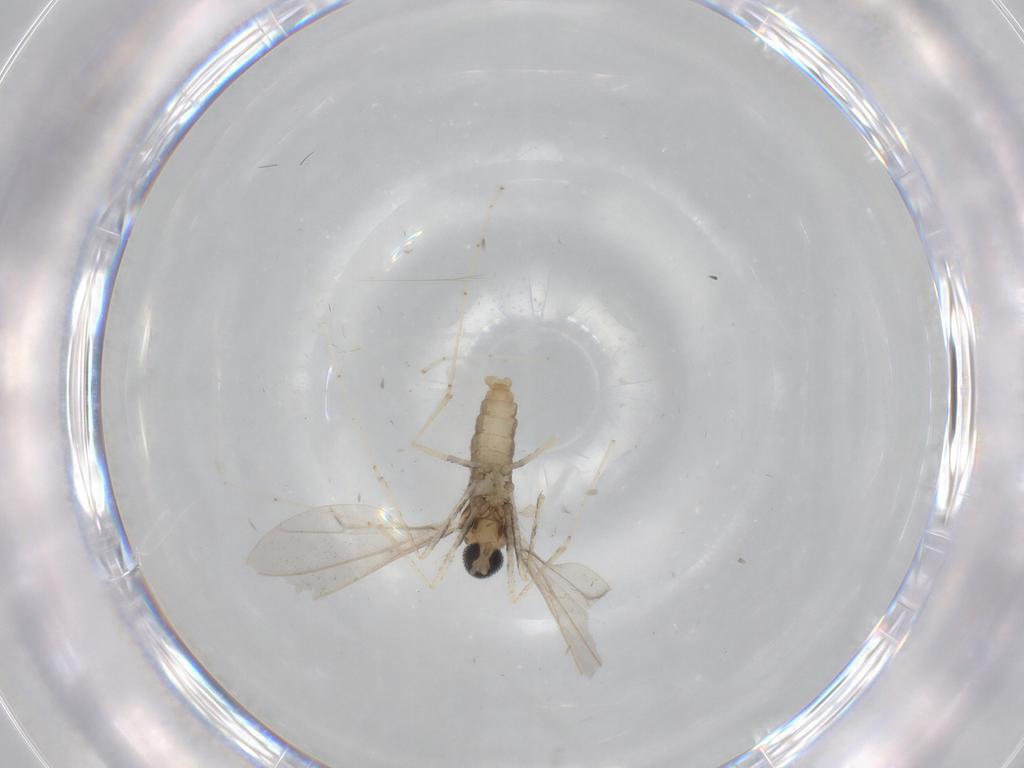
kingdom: Animalia
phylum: Arthropoda
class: Insecta
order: Diptera
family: Cecidomyiidae
